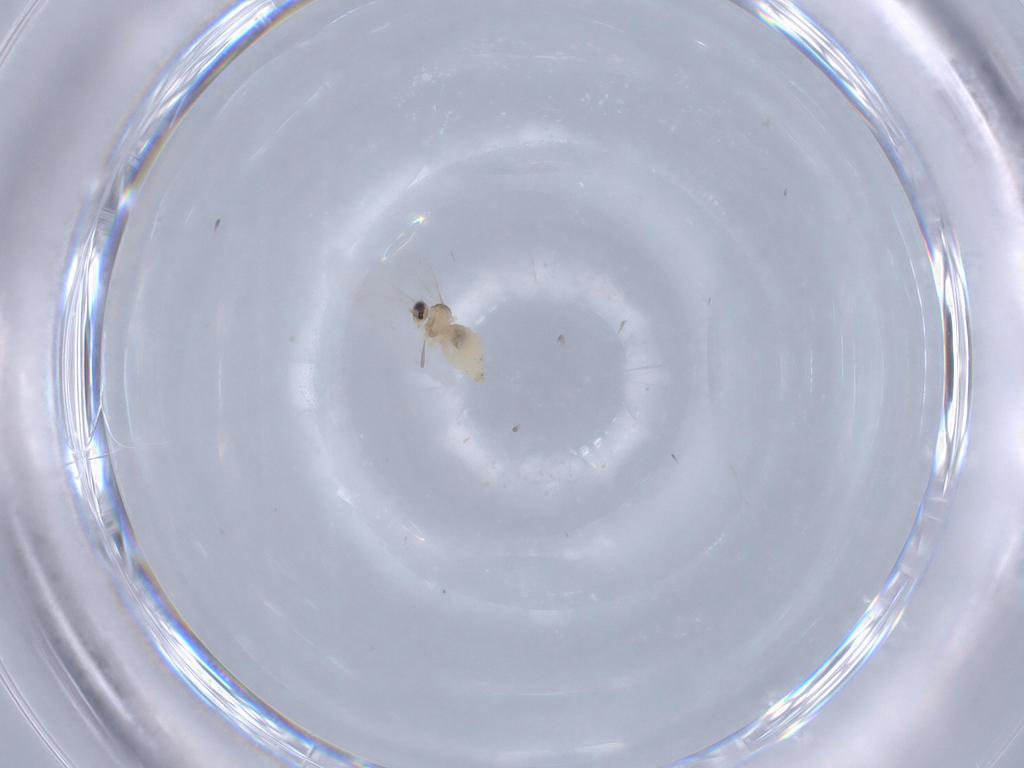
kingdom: Animalia
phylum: Arthropoda
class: Insecta
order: Diptera
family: Cecidomyiidae
